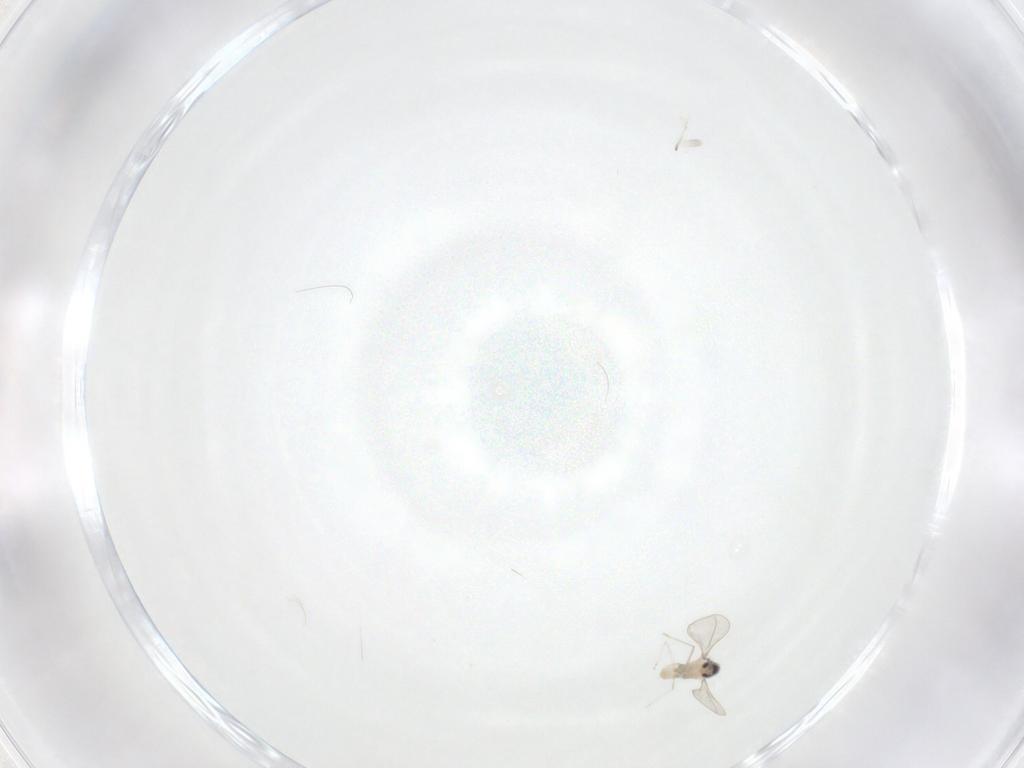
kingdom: Animalia
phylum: Arthropoda
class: Insecta
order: Diptera
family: Cecidomyiidae
